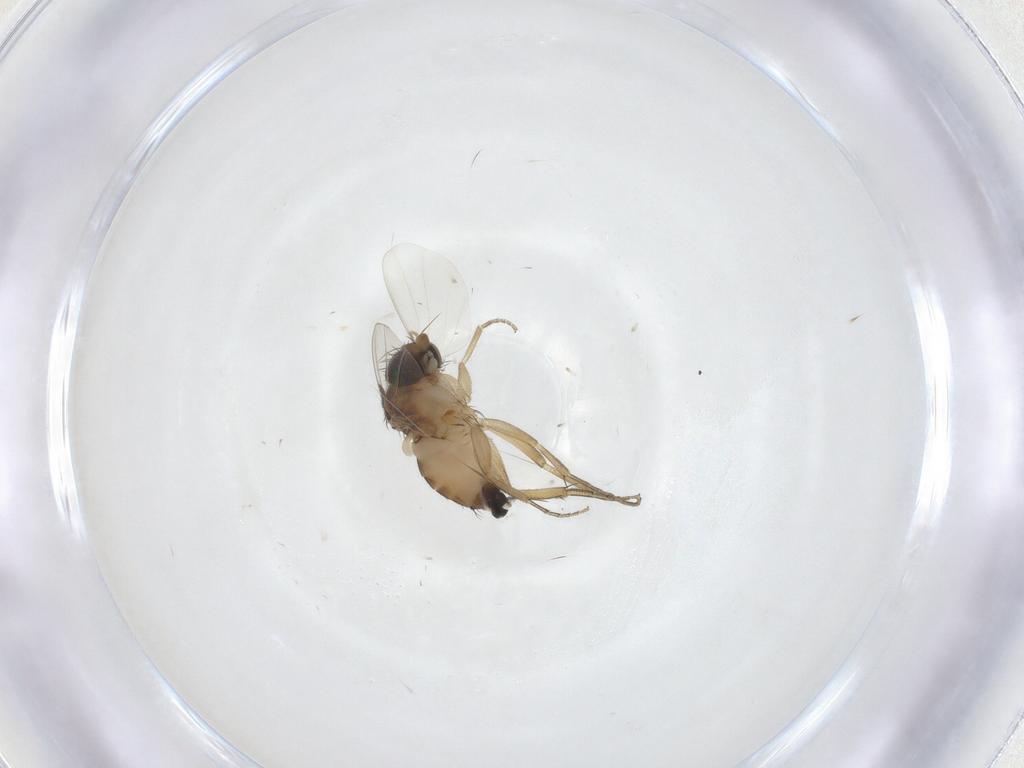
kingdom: Animalia
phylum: Arthropoda
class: Insecta
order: Diptera
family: Phoridae
